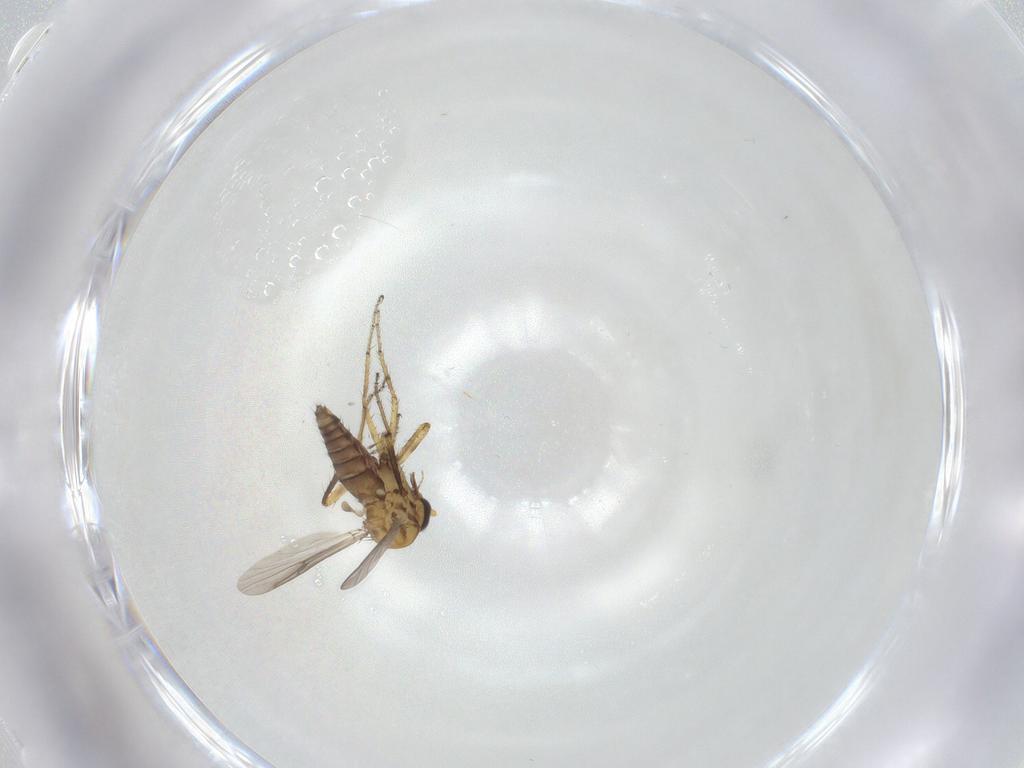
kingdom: Animalia
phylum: Arthropoda
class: Insecta
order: Diptera
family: Ceratopogonidae
